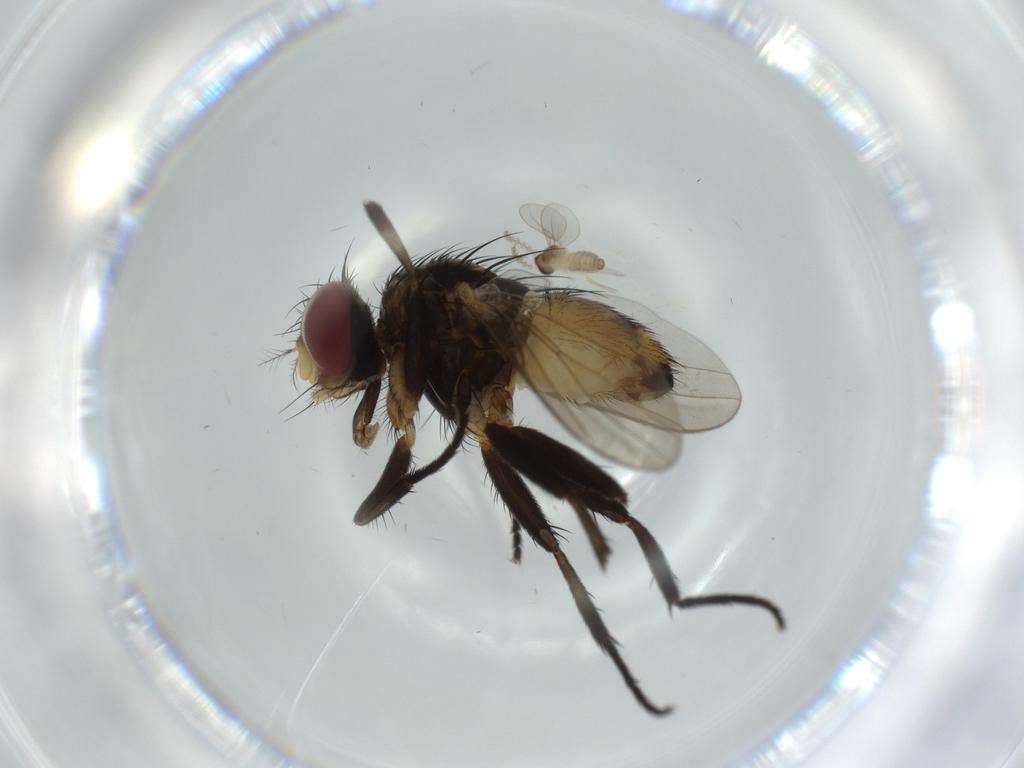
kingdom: Animalia
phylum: Arthropoda
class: Insecta
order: Diptera
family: Anthomyiidae
